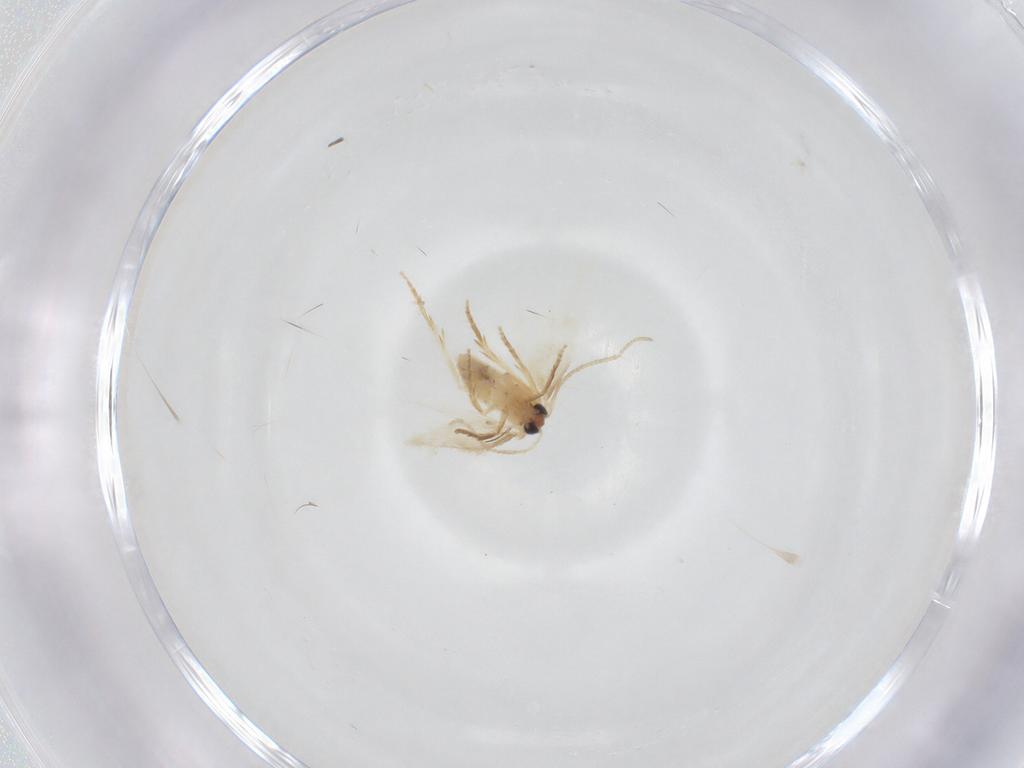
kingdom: Animalia
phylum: Arthropoda
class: Insecta
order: Lepidoptera
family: Nepticulidae
